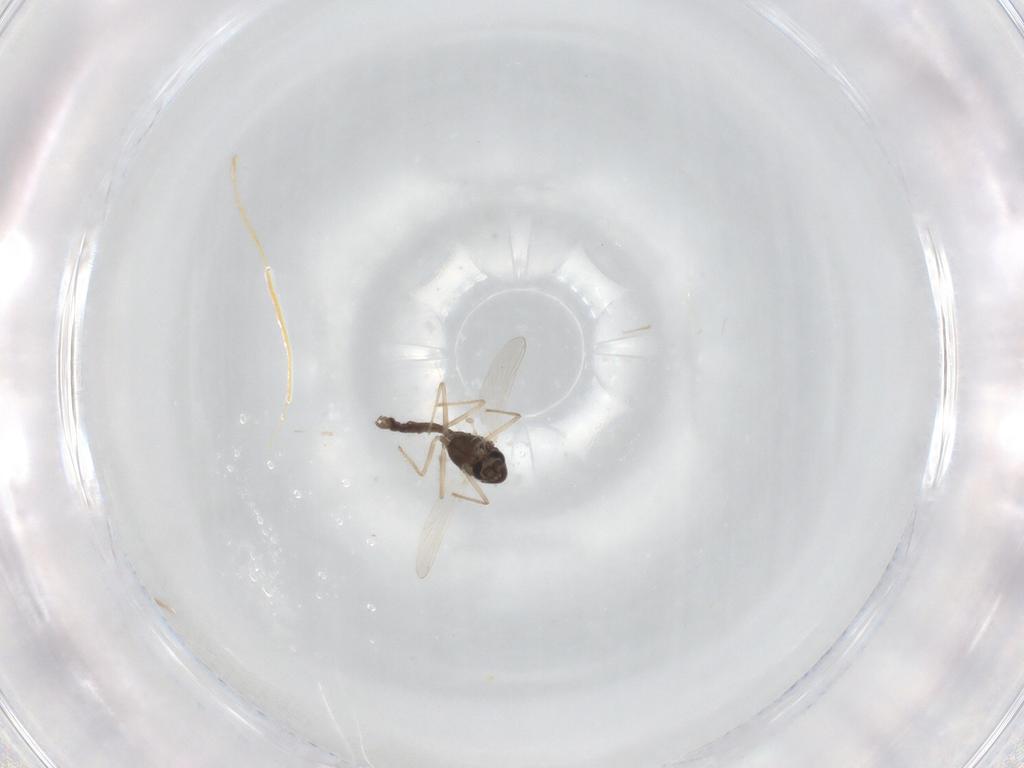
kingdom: Animalia
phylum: Arthropoda
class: Insecta
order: Diptera
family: Chironomidae
